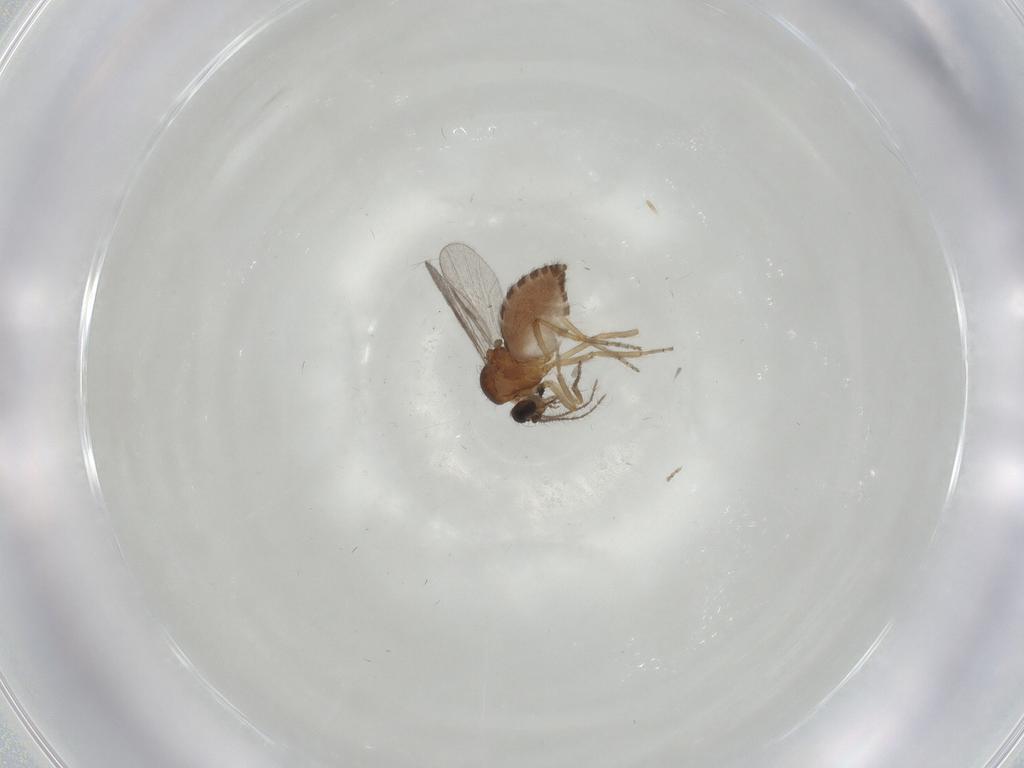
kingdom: Animalia
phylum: Arthropoda
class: Insecta
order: Diptera
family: Ceratopogonidae
